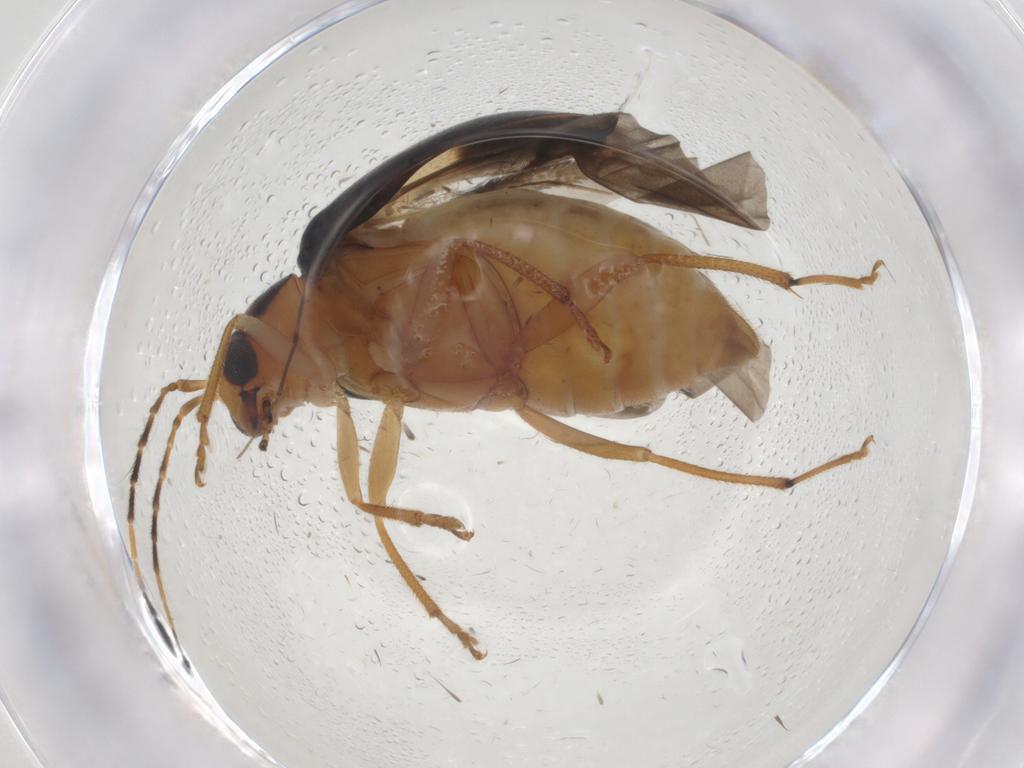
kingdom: Animalia
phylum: Arthropoda
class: Insecta
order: Coleoptera
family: Chrysomelidae
